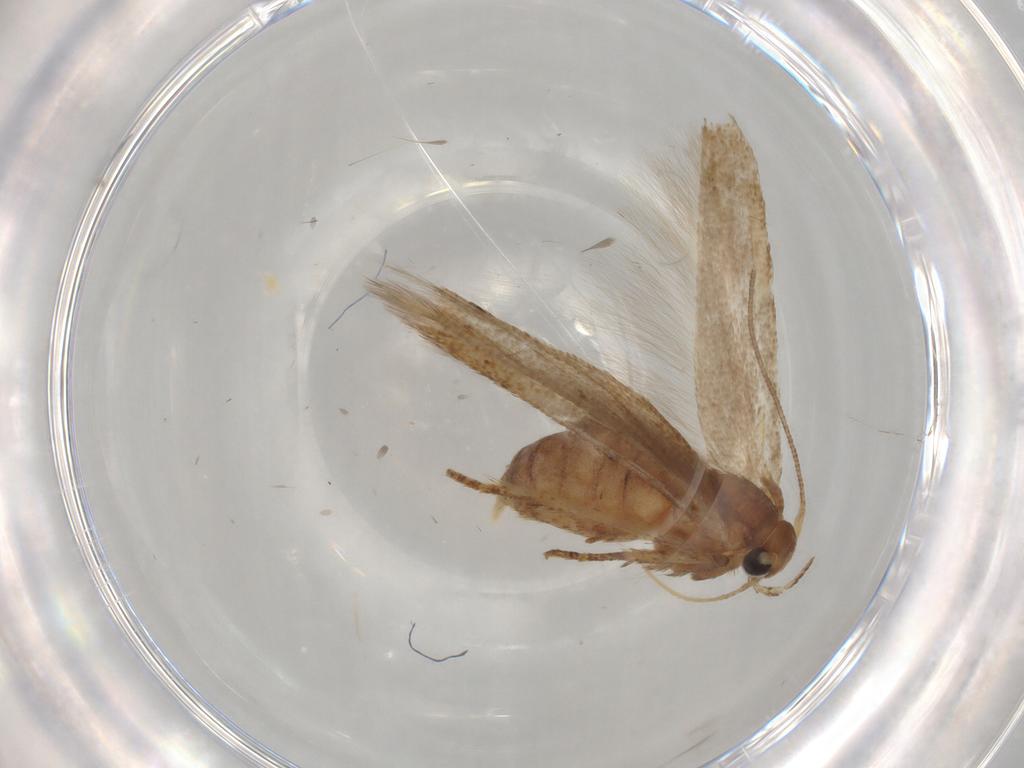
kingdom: Animalia
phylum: Arthropoda
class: Insecta
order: Lepidoptera
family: Blastobasidae
